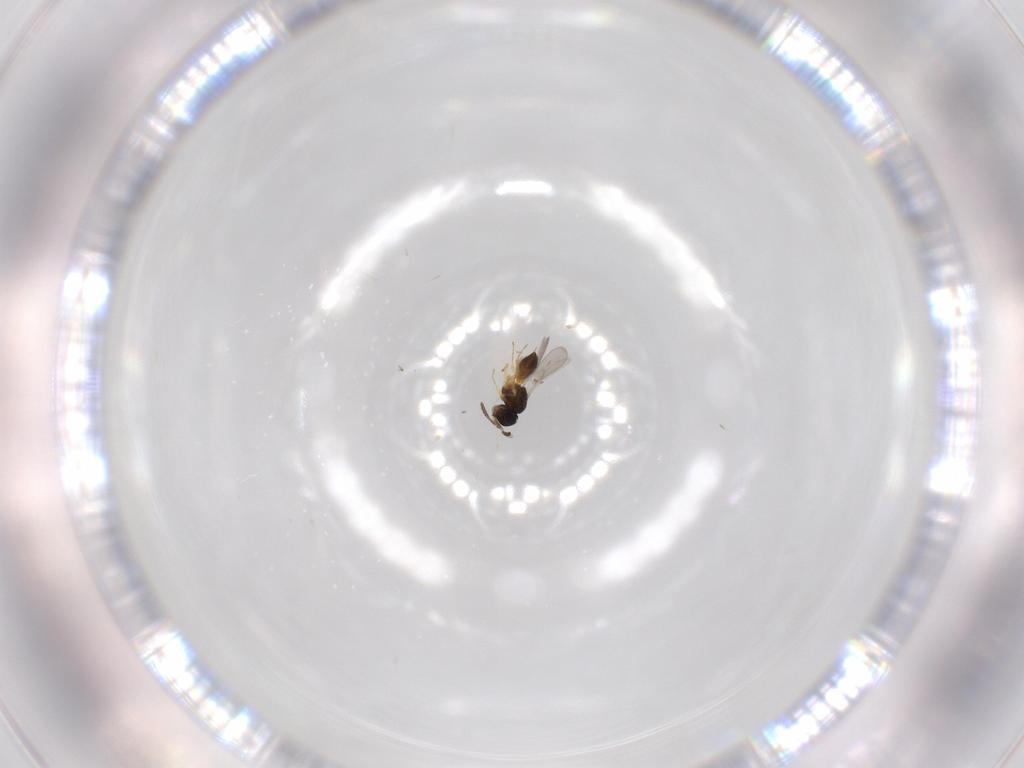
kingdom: Animalia
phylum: Arthropoda
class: Insecta
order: Hymenoptera
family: Scelionidae
